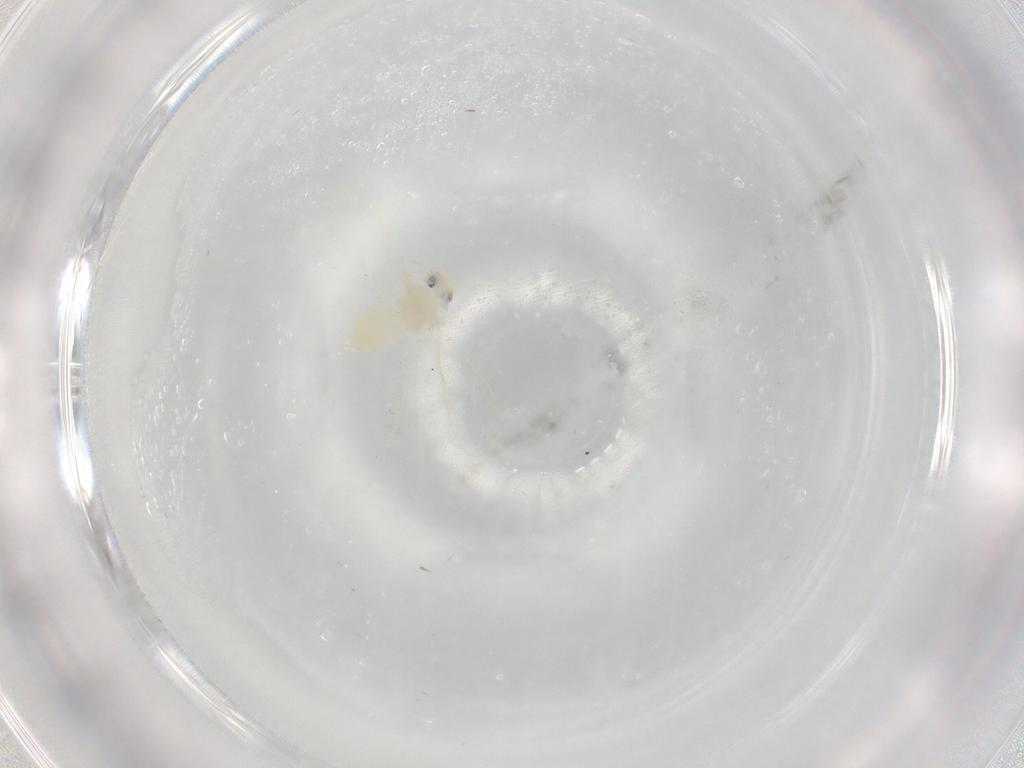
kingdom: Animalia
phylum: Arthropoda
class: Insecta
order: Hemiptera
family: Aleyrodidae
